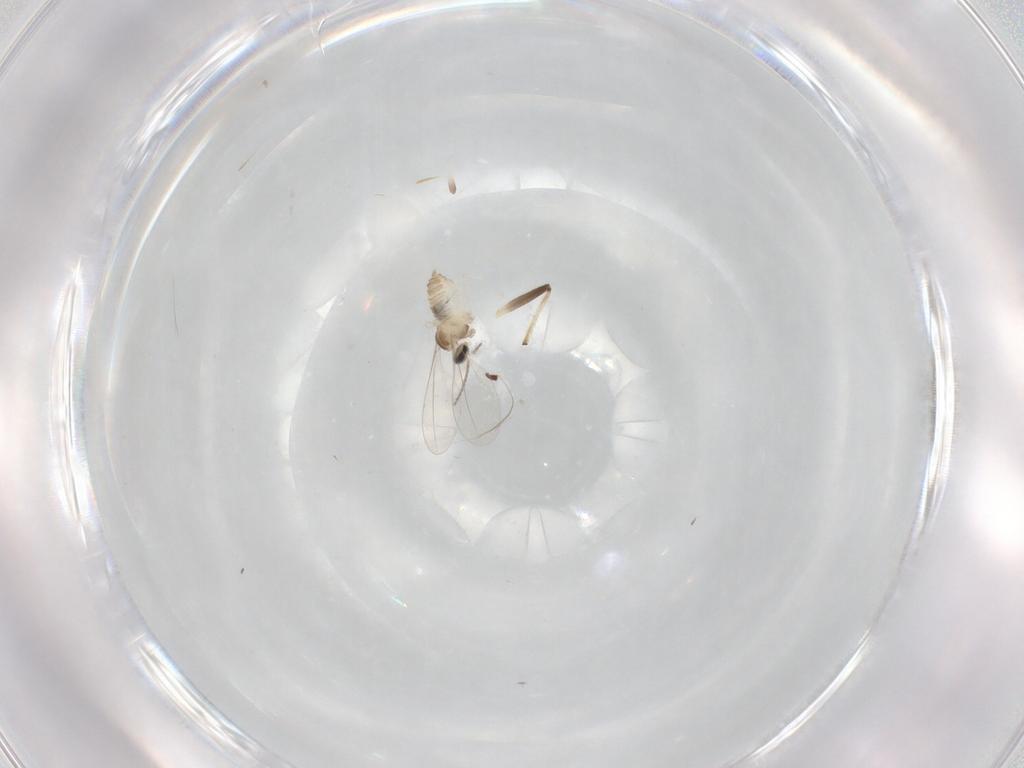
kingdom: Animalia
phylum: Arthropoda
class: Insecta
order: Diptera
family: Cecidomyiidae
